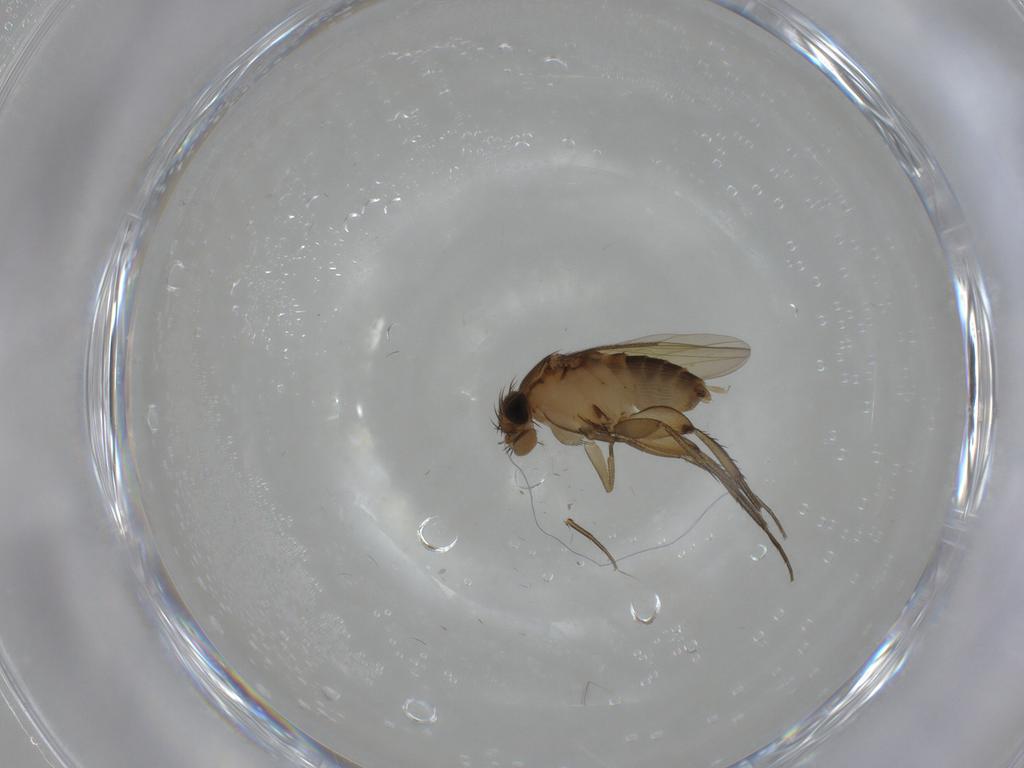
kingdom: Animalia
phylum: Arthropoda
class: Insecta
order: Diptera
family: Phoridae
